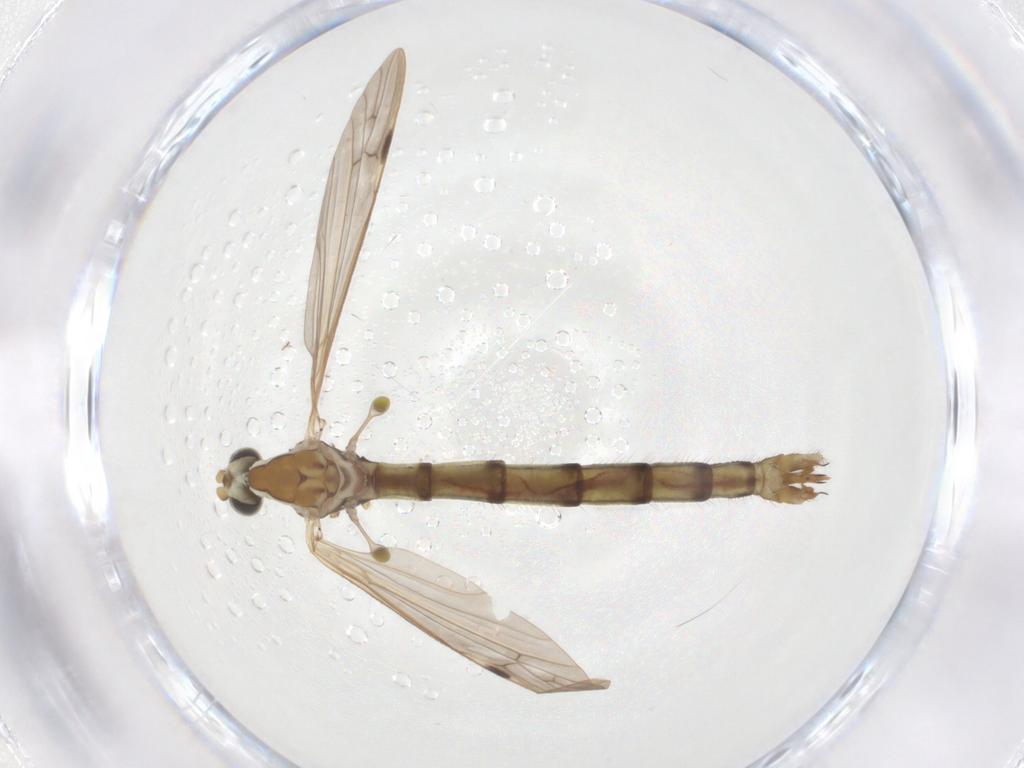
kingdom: Animalia
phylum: Arthropoda
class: Insecta
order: Diptera
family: Sphaeroceridae
